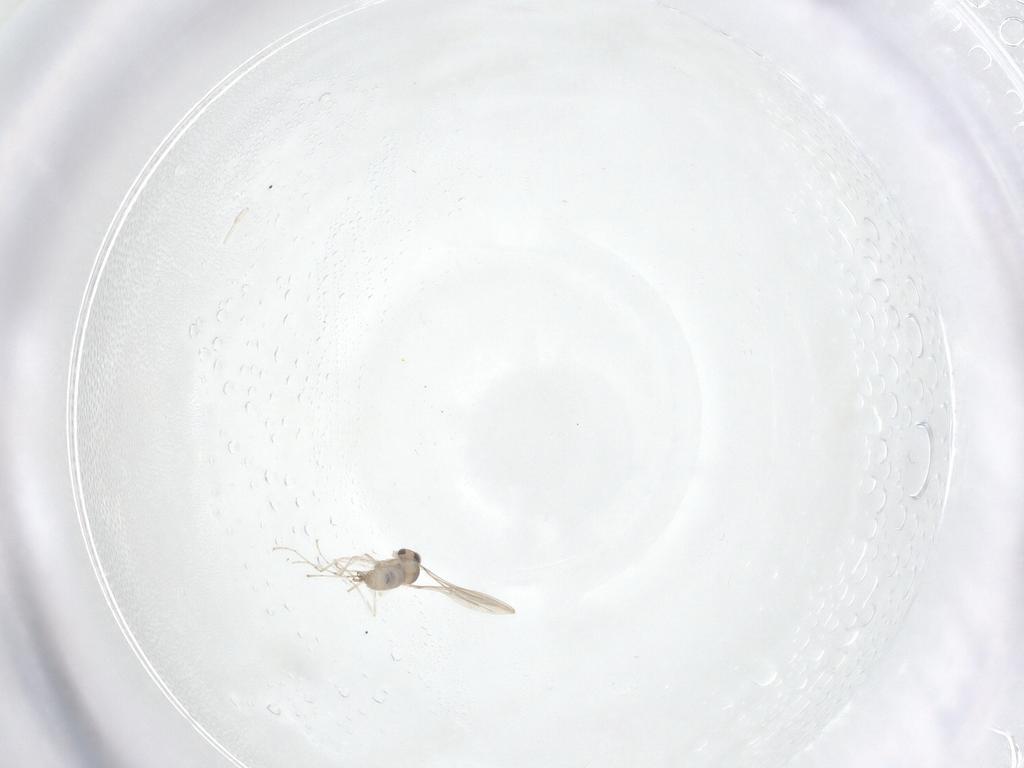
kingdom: Animalia
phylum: Arthropoda
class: Insecta
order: Diptera
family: Cecidomyiidae
